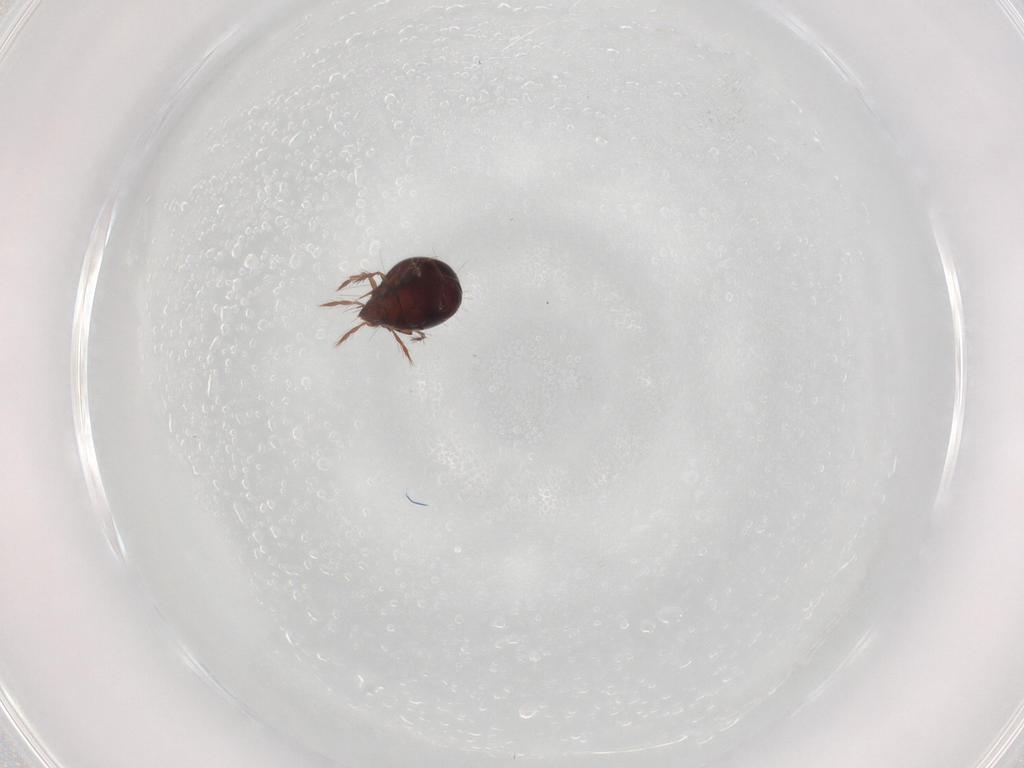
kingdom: Animalia
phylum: Arthropoda
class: Arachnida
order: Sarcoptiformes
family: Ceratoppiidae
